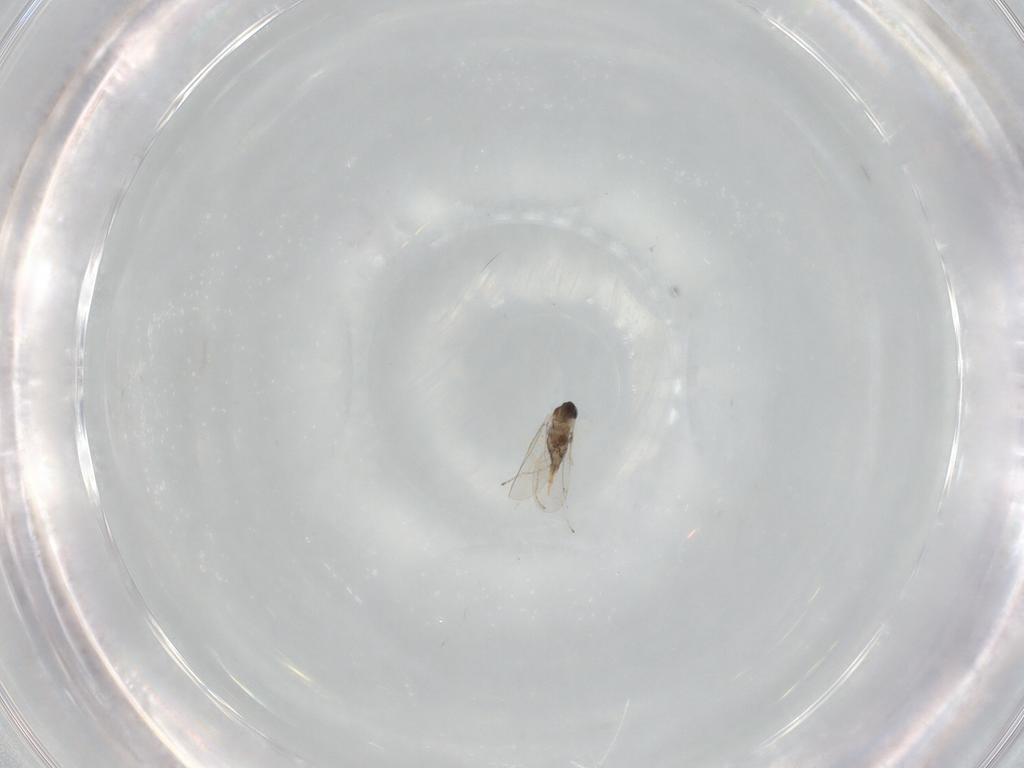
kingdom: Animalia
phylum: Arthropoda
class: Insecta
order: Diptera
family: Cecidomyiidae
